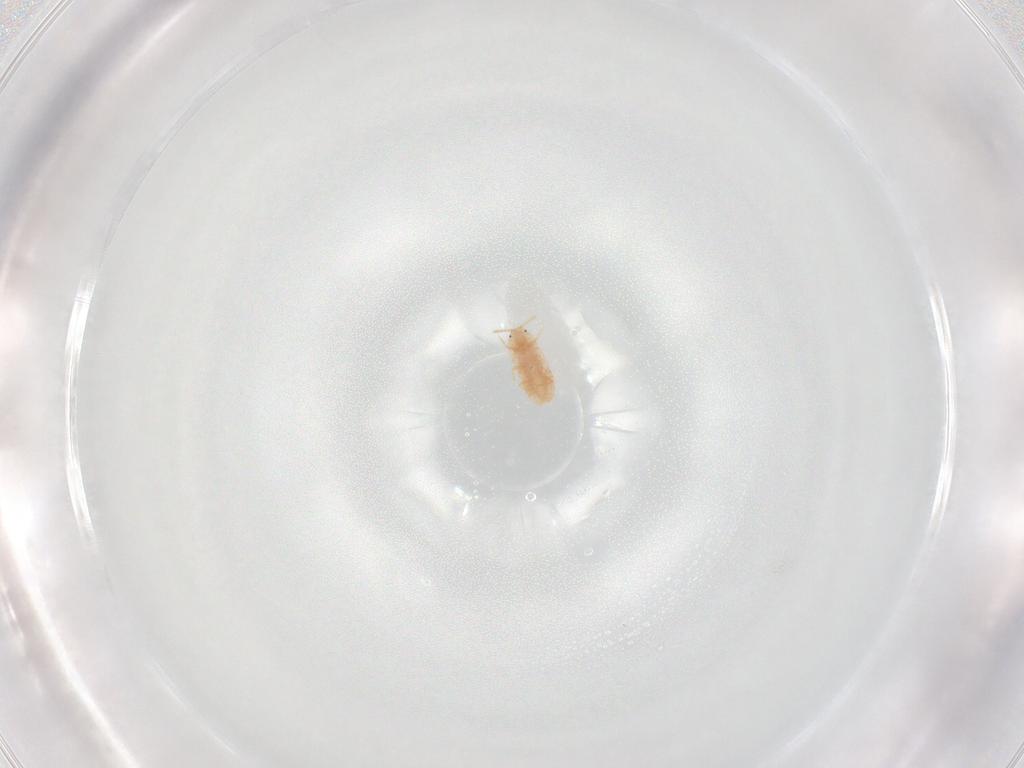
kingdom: Animalia
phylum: Arthropoda
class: Insecta
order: Hemiptera
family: Coccoidea_incertae_sedis
